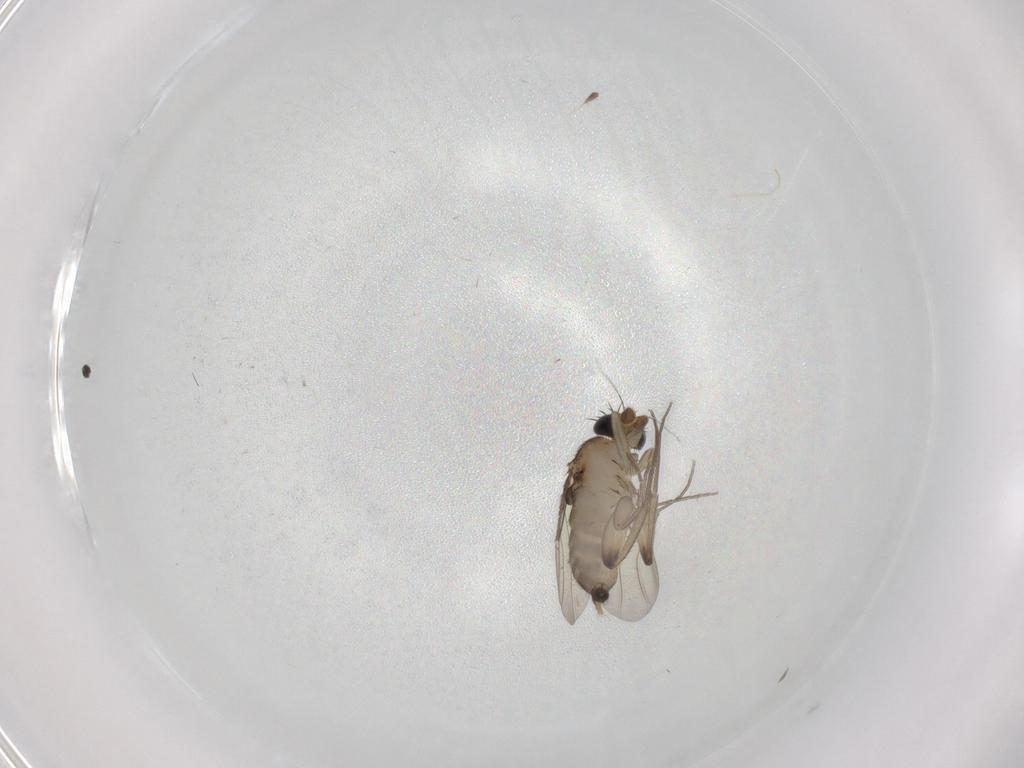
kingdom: Animalia
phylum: Arthropoda
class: Insecta
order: Diptera
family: Phoridae
